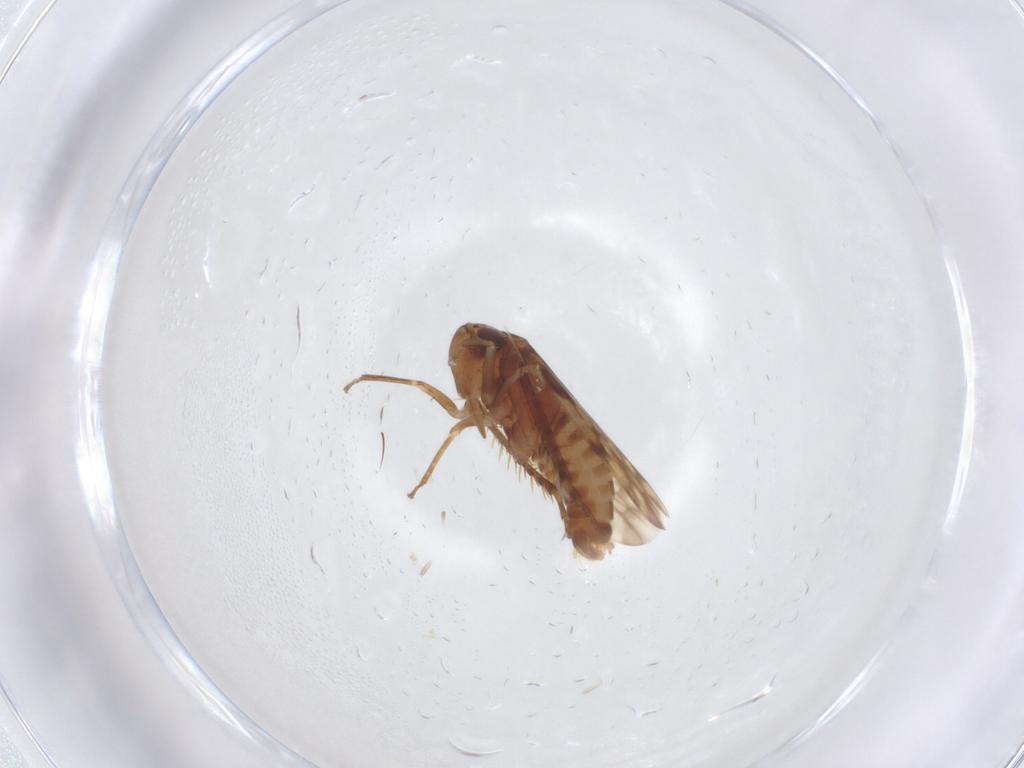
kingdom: Animalia
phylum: Arthropoda
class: Insecta
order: Hemiptera
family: Cicadellidae
